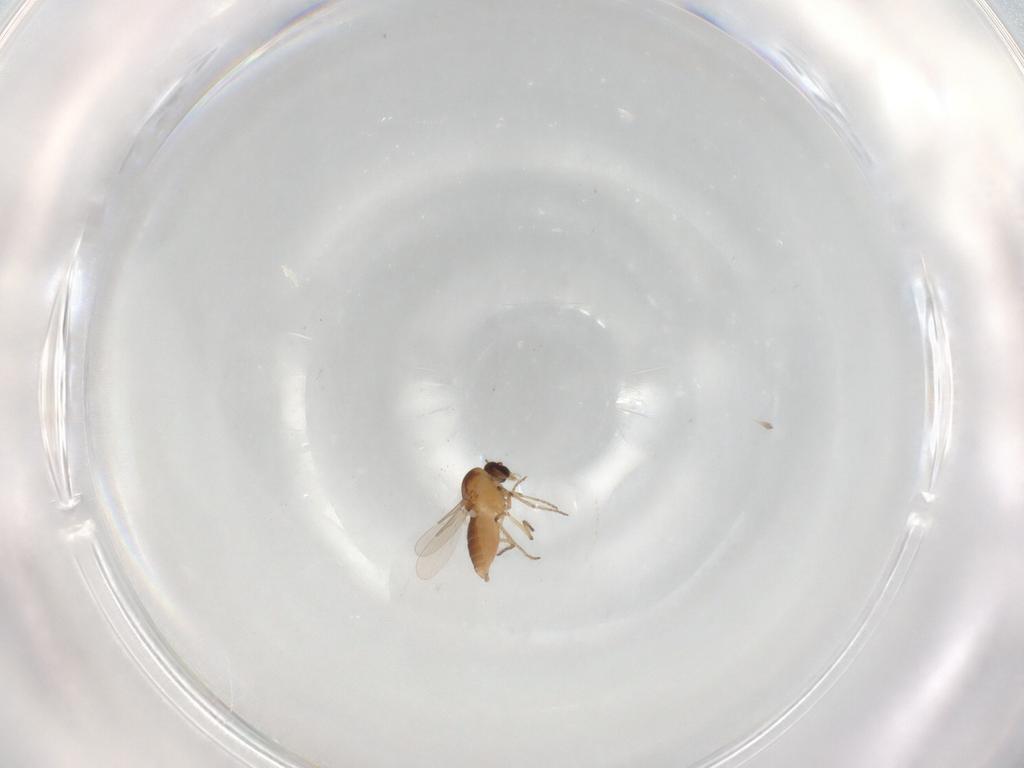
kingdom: Animalia
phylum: Arthropoda
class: Insecta
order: Diptera
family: Ceratopogonidae
